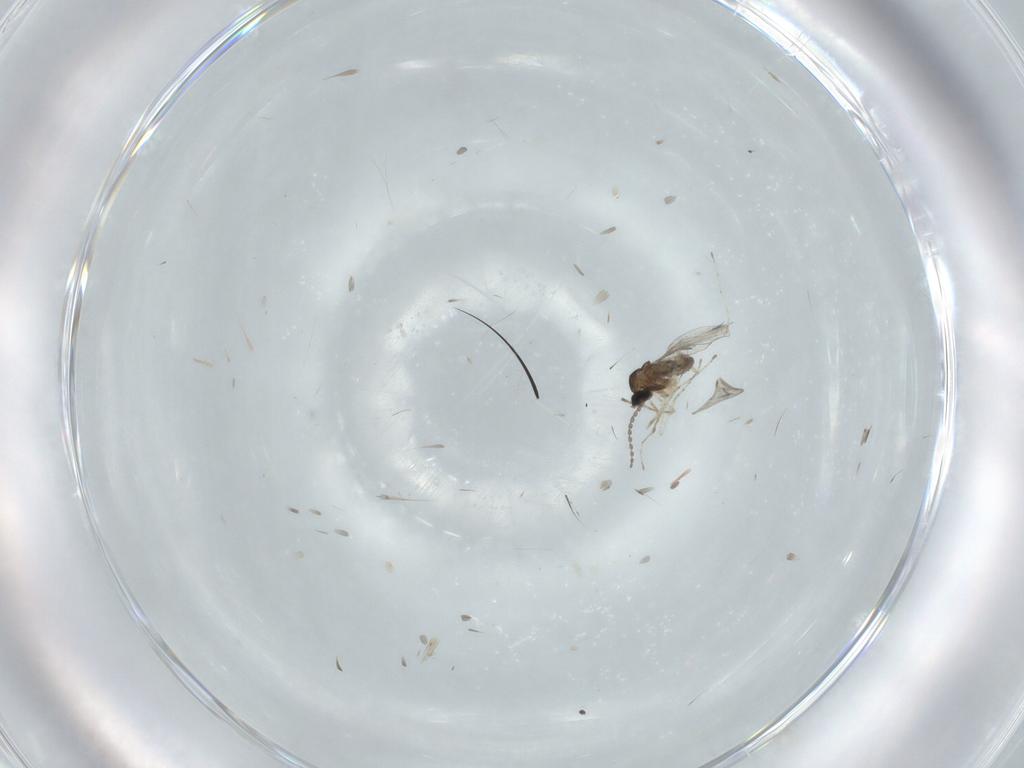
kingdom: Animalia
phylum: Arthropoda
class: Insecta
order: Diptera
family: Cecidomyiidae
